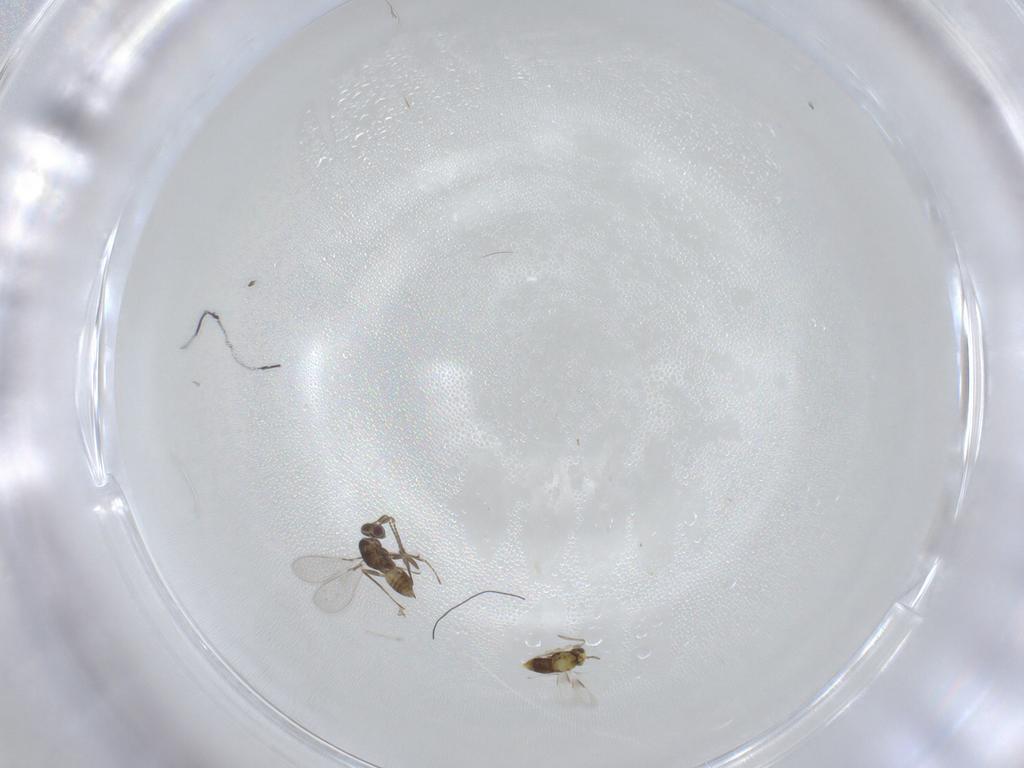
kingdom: Animalia
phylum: Arthropoda
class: Insecta
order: Hymenoptera
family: Mymaridae
